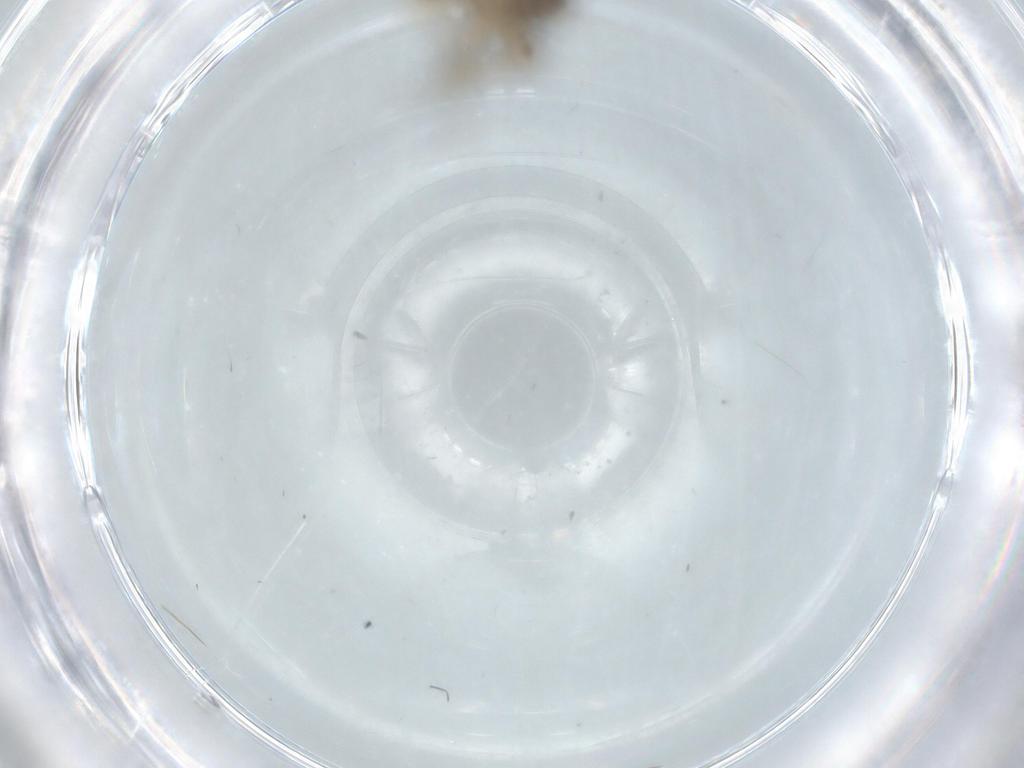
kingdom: Animalia
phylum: Arthropoda
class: Insecta
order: Diptera
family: Phoridae
